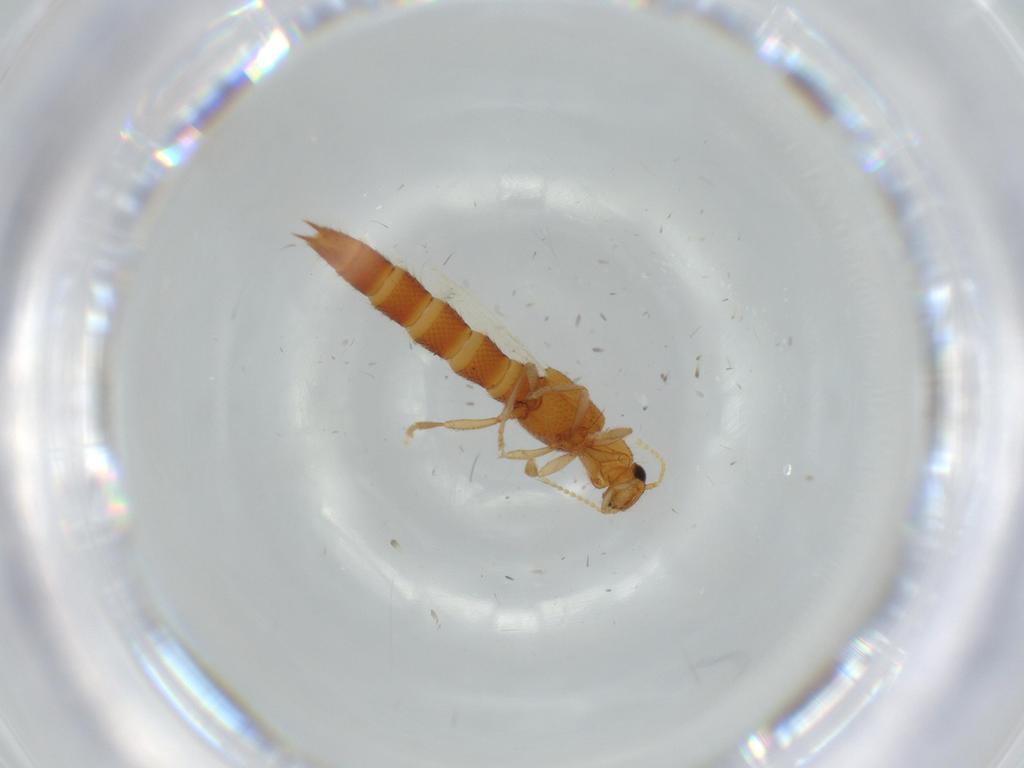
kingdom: Animalia
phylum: Arthropoda
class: Insecta
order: Coleoptera
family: Staphylinidae
